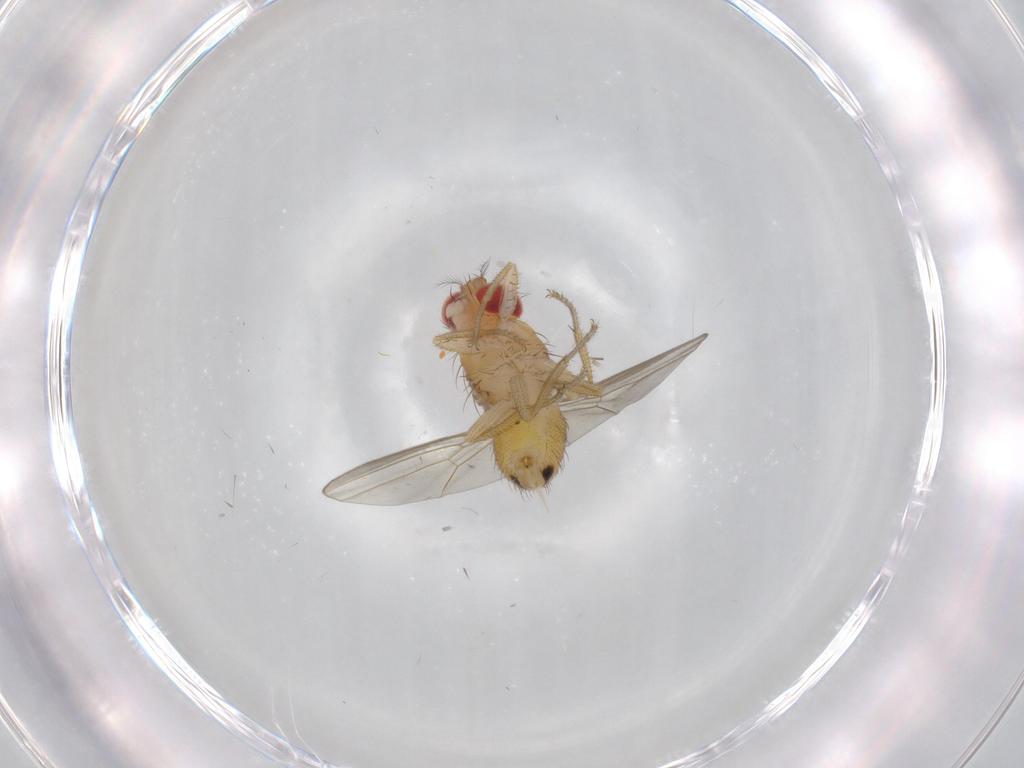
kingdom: Animalia
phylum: Arthropoda
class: Insecta
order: Diptera
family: Drosophilidae
